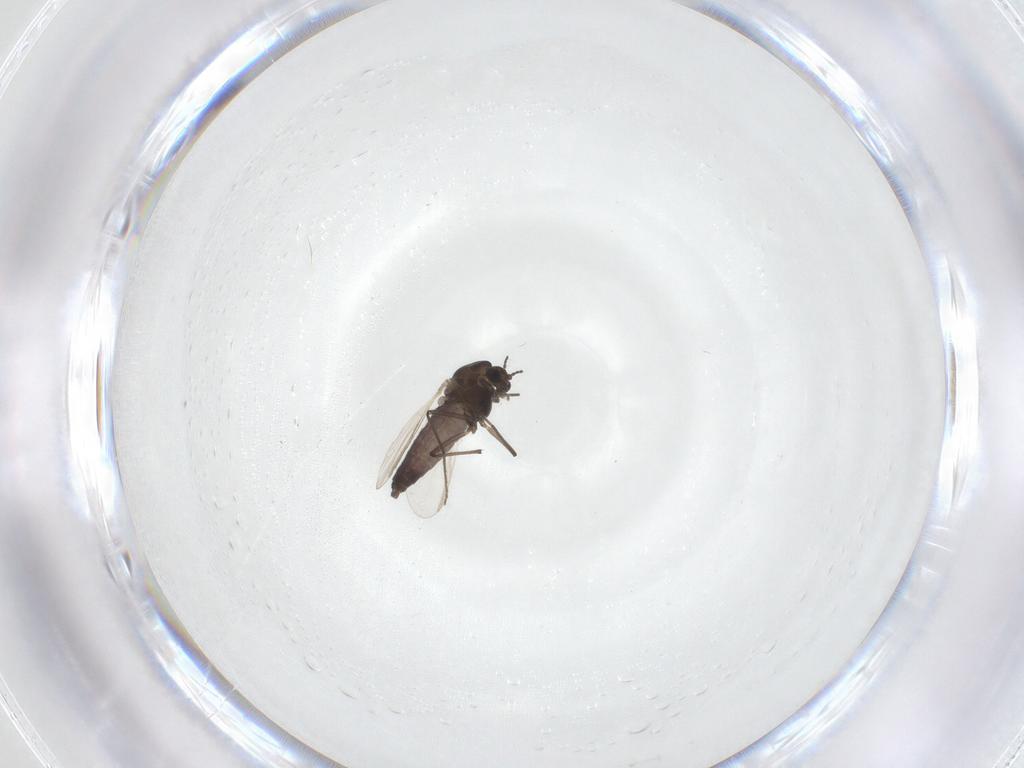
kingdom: Animalia
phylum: Arthropoda
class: Insecta
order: Diptera
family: Chironomidae
